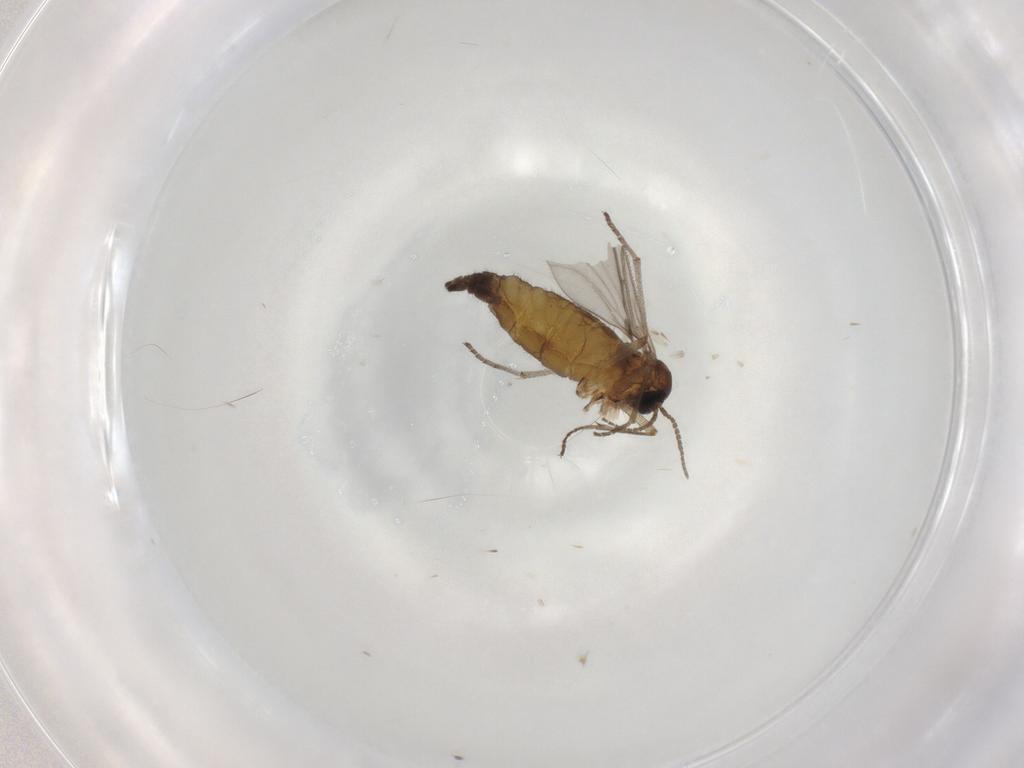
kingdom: Animalia
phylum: Arthropoda
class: Insecta
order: Diptera
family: Sciaridae
